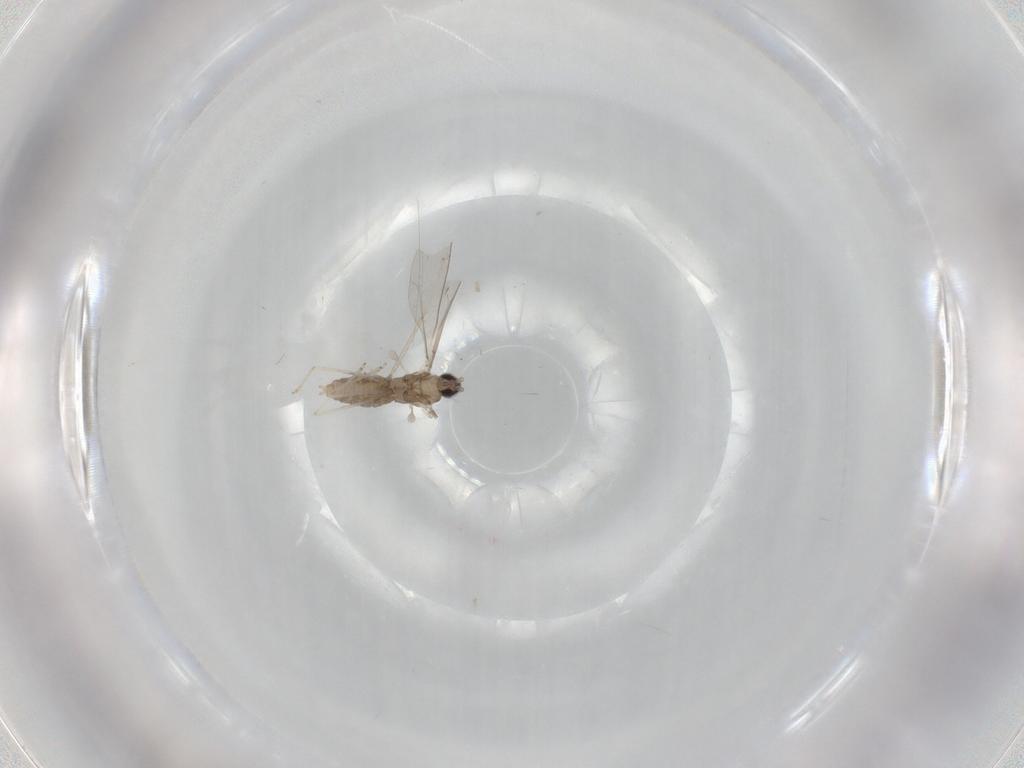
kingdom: Animalia
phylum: Arthropoda
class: Insecta
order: Diptera
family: Cecidomyiidae
